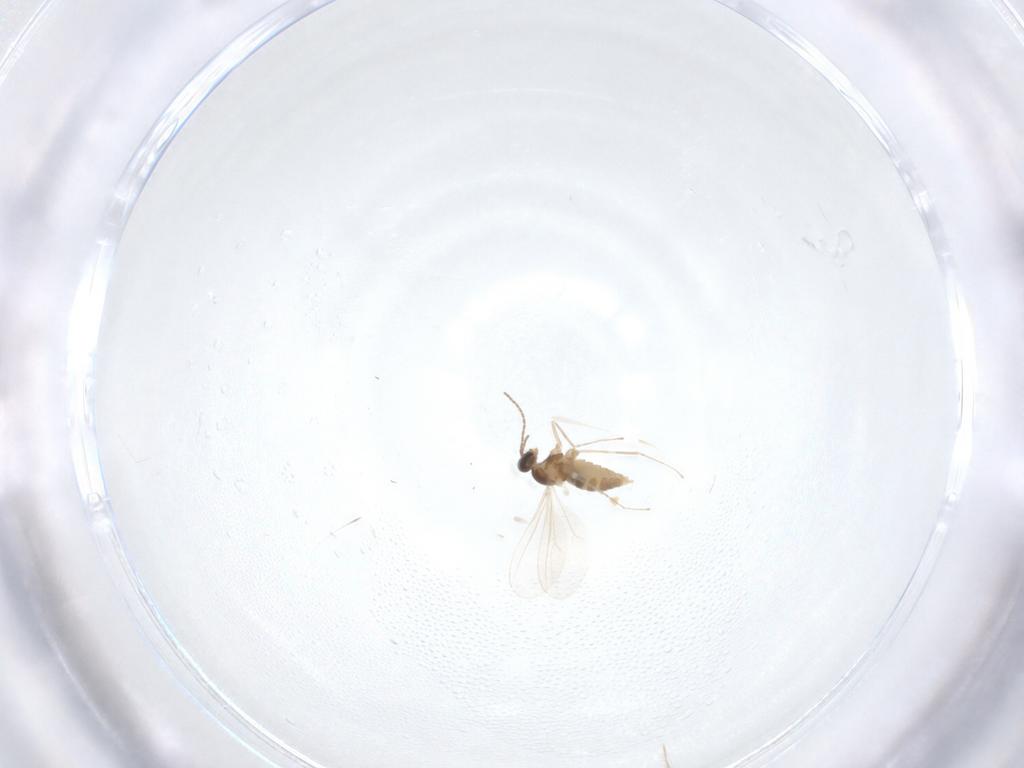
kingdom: Animalia
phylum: Arthropoda
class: Insecta
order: Diptera
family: Cecidomyiidae
